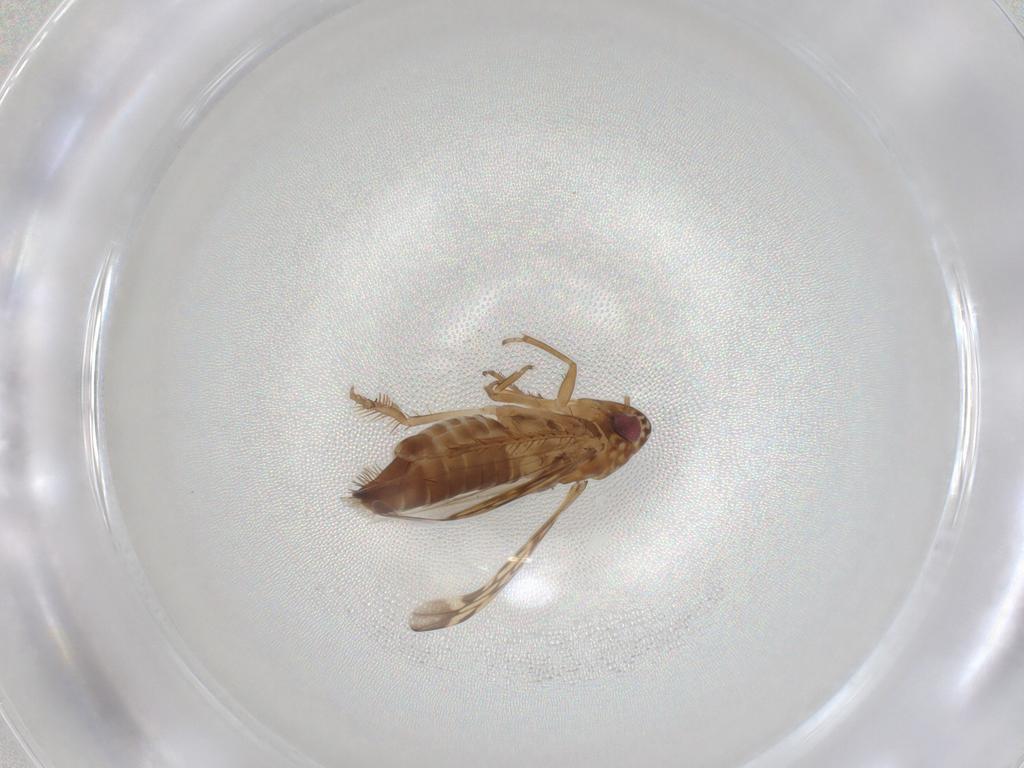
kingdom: Animalia
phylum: Arthropoda
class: Insecta
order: Hemiptera
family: Cicadellidae
